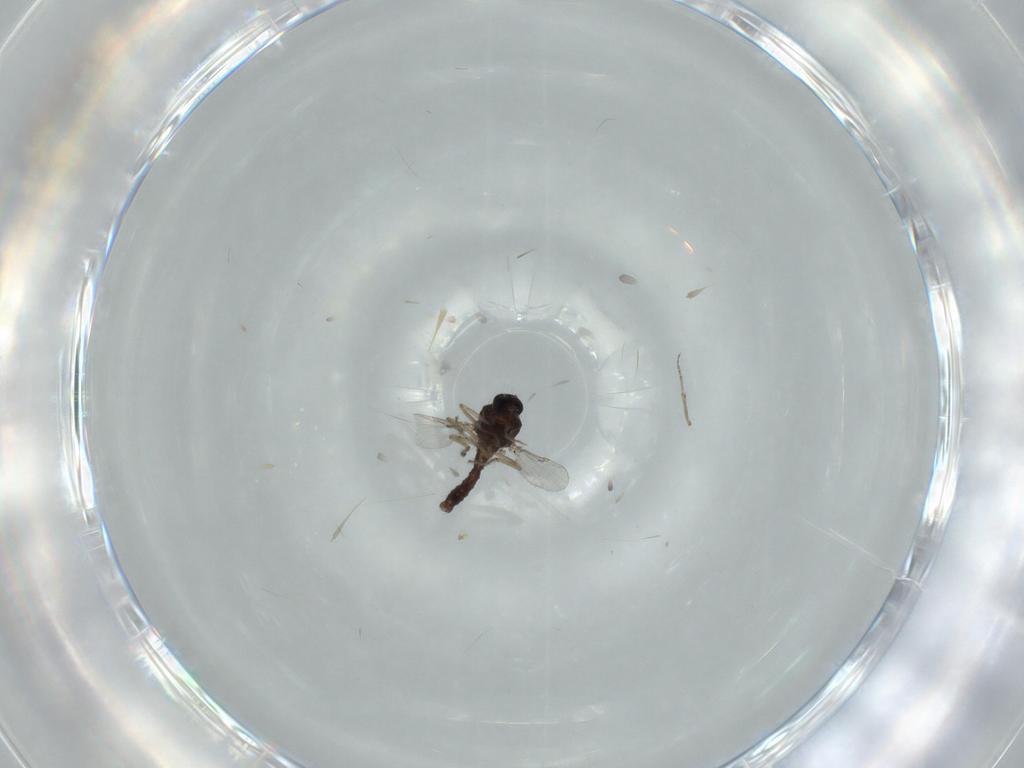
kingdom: Animalia
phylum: Arthropoda
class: Insecta
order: Diptera
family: Ceratopogonidae
